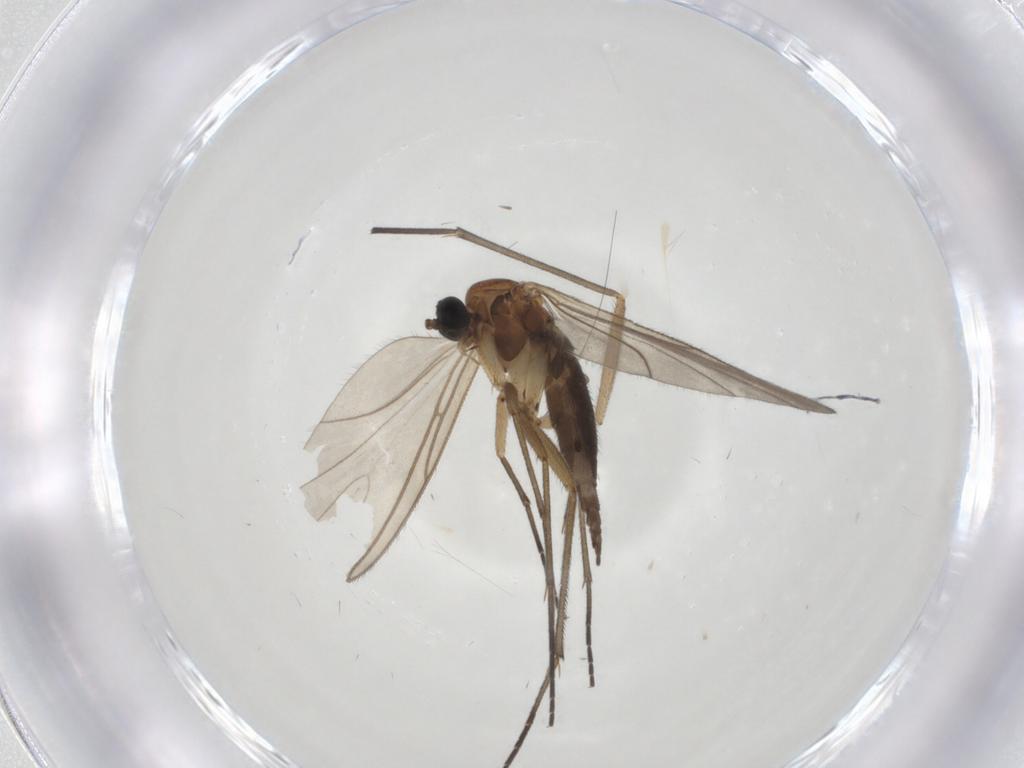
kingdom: Animalia
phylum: Arthropoda
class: Insecta
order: Diptera
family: Sciaridae
